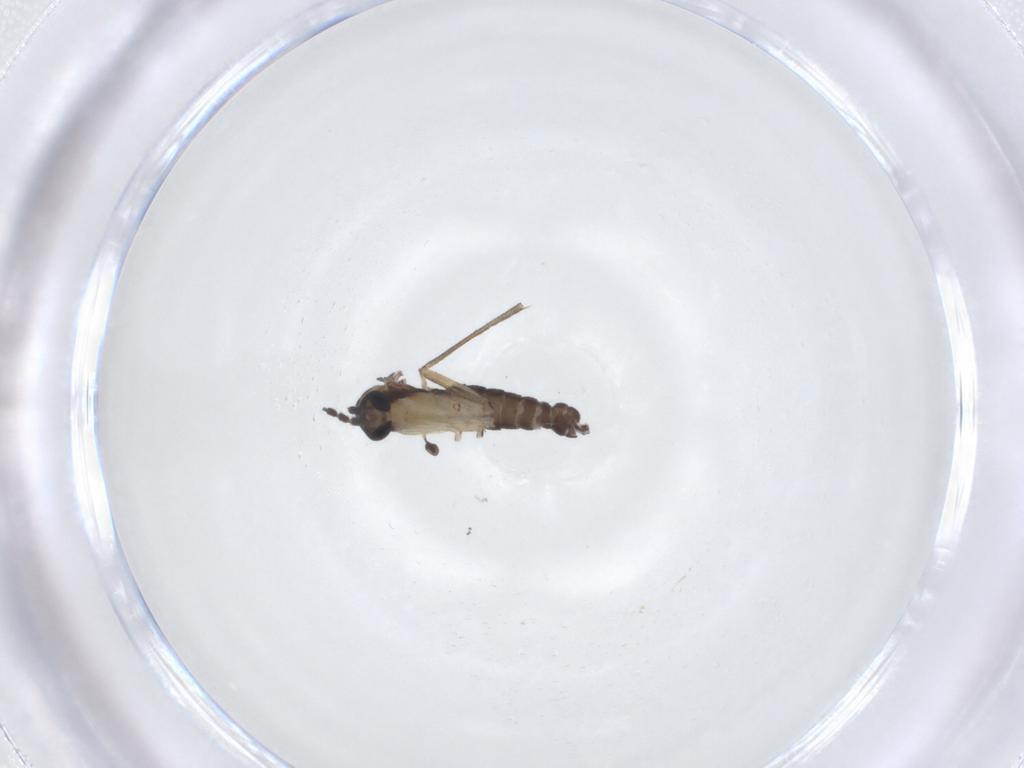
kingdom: Animalia
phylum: Arthropoda
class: Insecta
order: Diptera
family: Sciaridae
